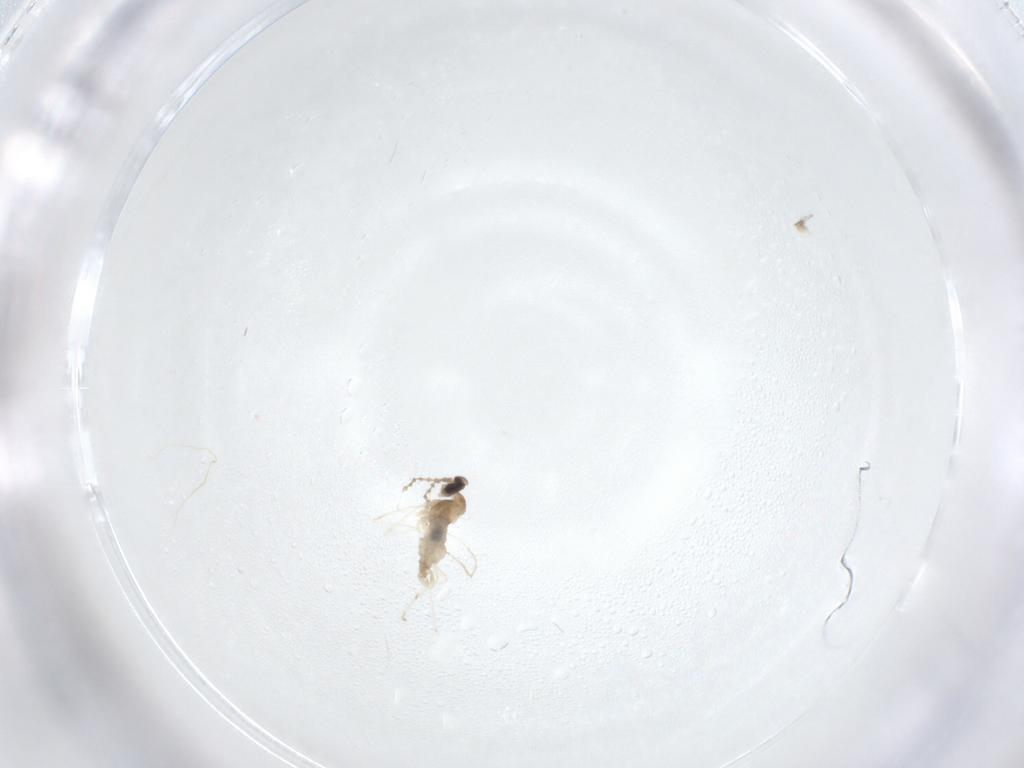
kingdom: Animalia
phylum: Arthropoda
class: Insecta
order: Diptera
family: Cecidomyiidae
